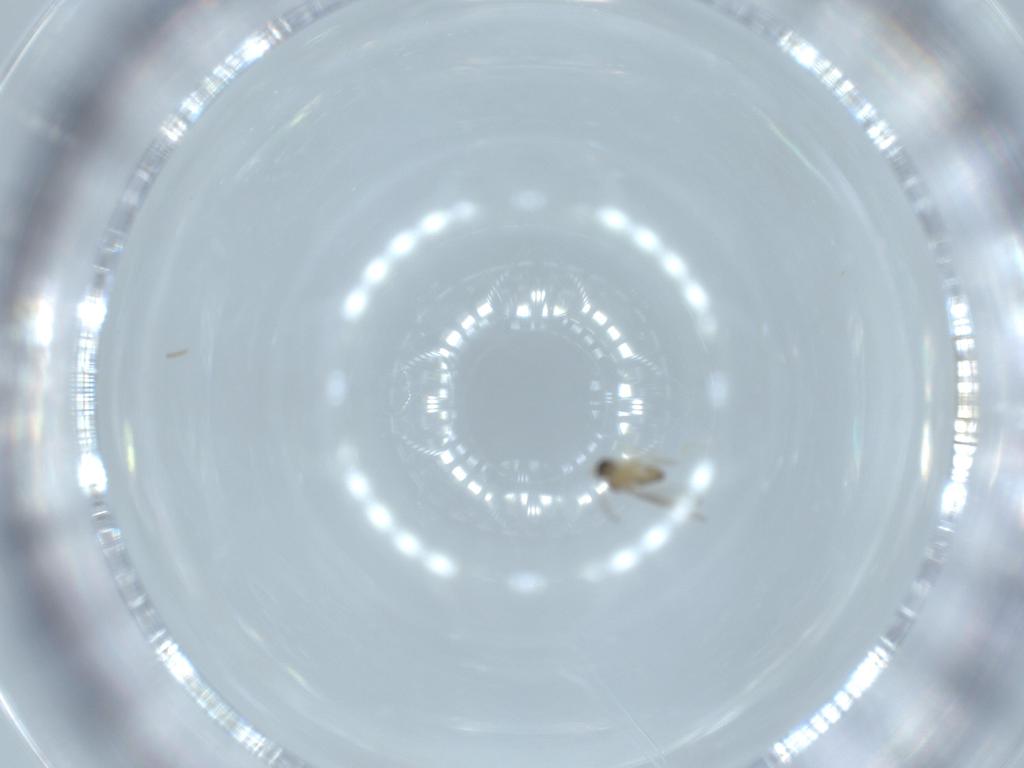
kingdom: Animalia
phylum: Arthropoda
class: Insecta
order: Diptera
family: Cecidomyiidae
